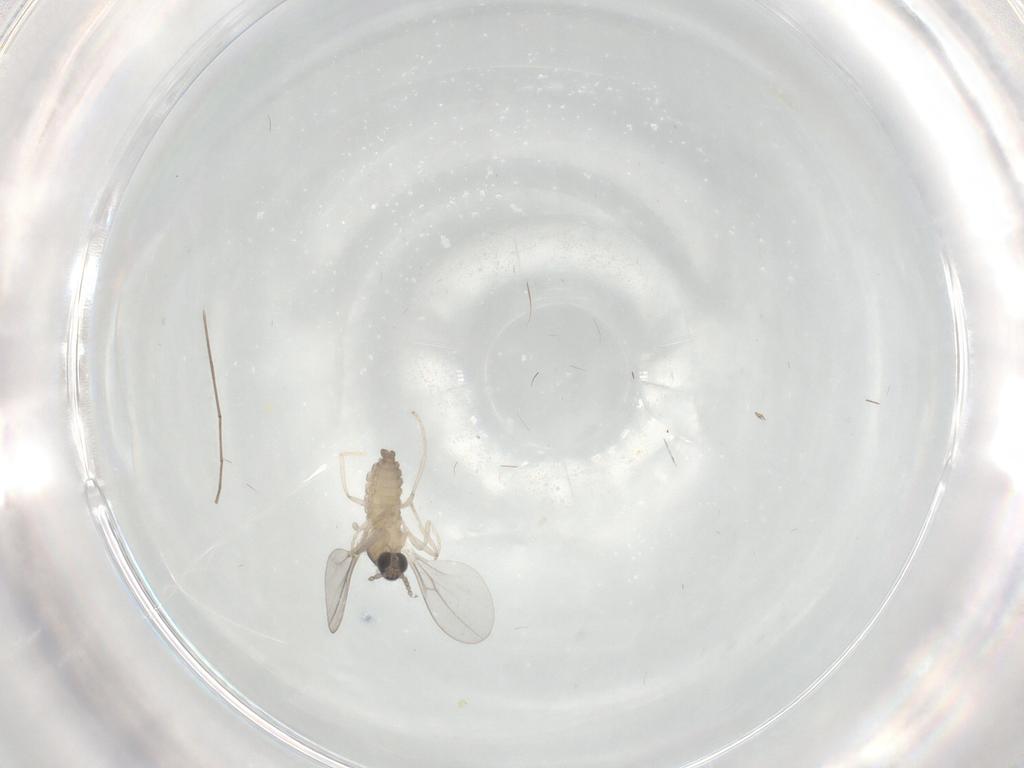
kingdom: Animalia
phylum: Arthropoda
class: Insecta
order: Diptera
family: Cecidomyiidae
